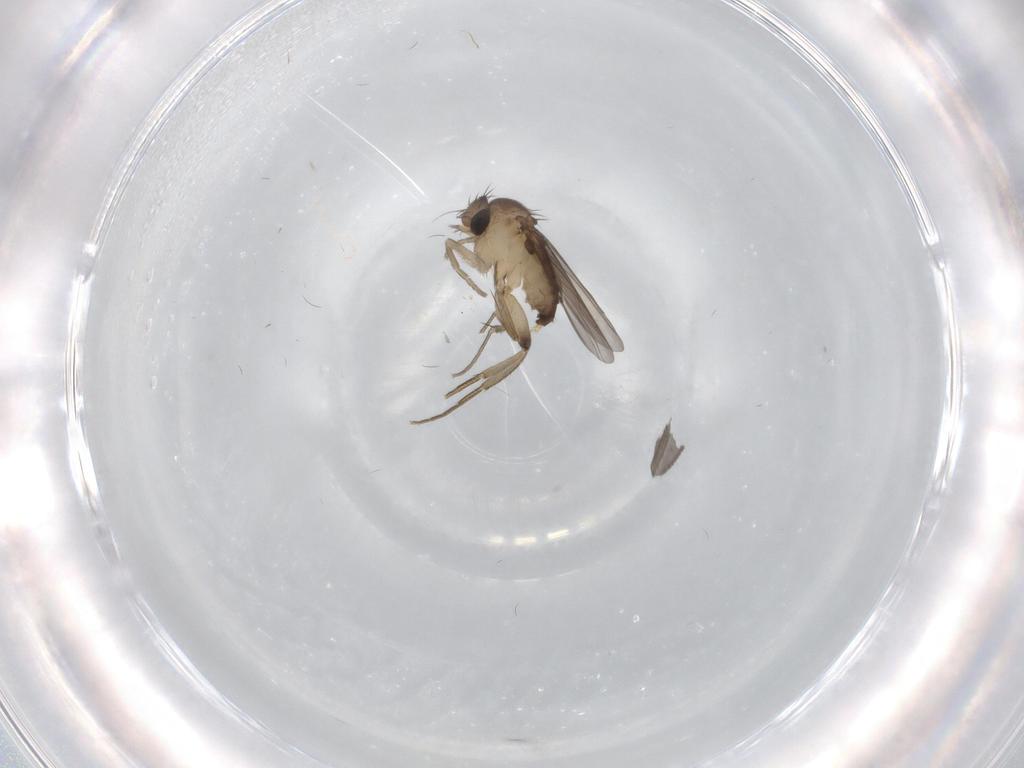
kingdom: Animalia
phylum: Arthropoda
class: Insecta
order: Diptera
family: Phoridae
